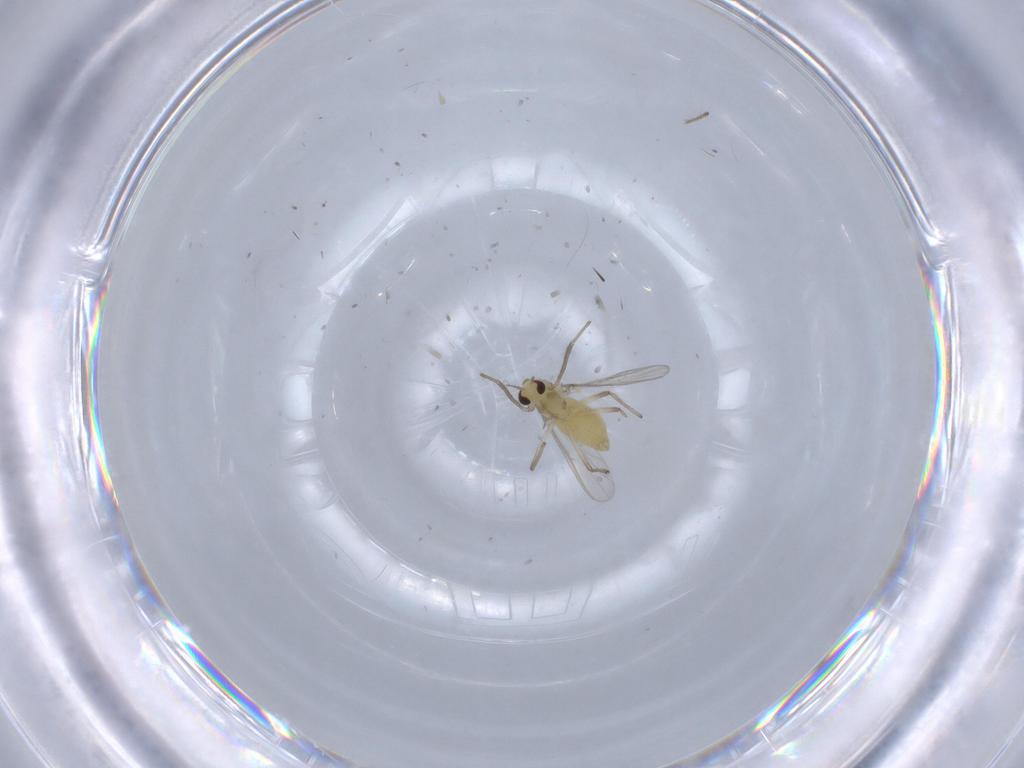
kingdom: Animalia
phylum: Arthropoda
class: Insecta
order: Diptera
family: Chironomidae
